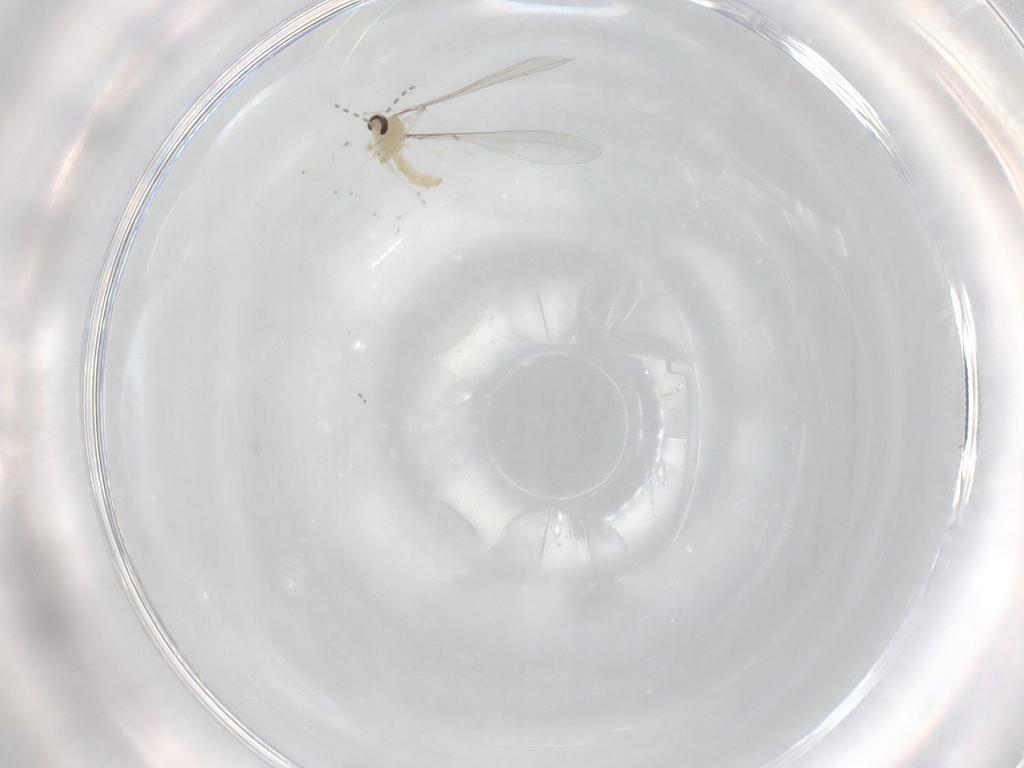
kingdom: Animalia
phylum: Arthropoda
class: Insecta
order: Diptera
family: Cecidomyiidae
